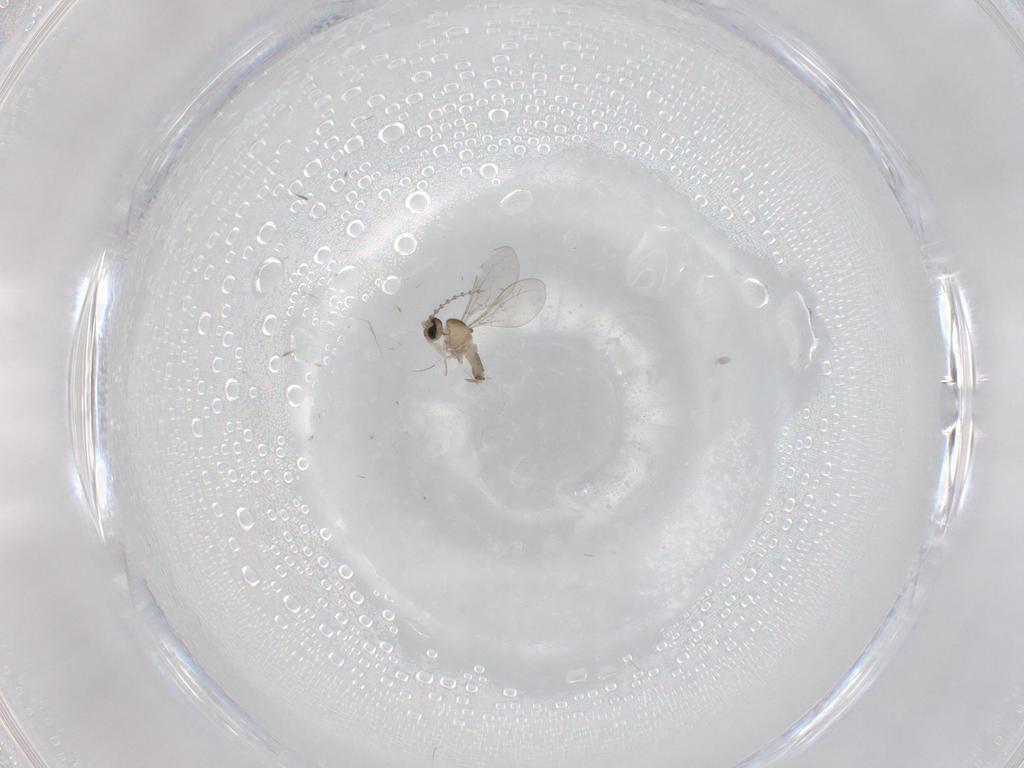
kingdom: Animalia
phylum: Arthropoda
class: Insecta
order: Diptera
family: Cecidomyiidae
